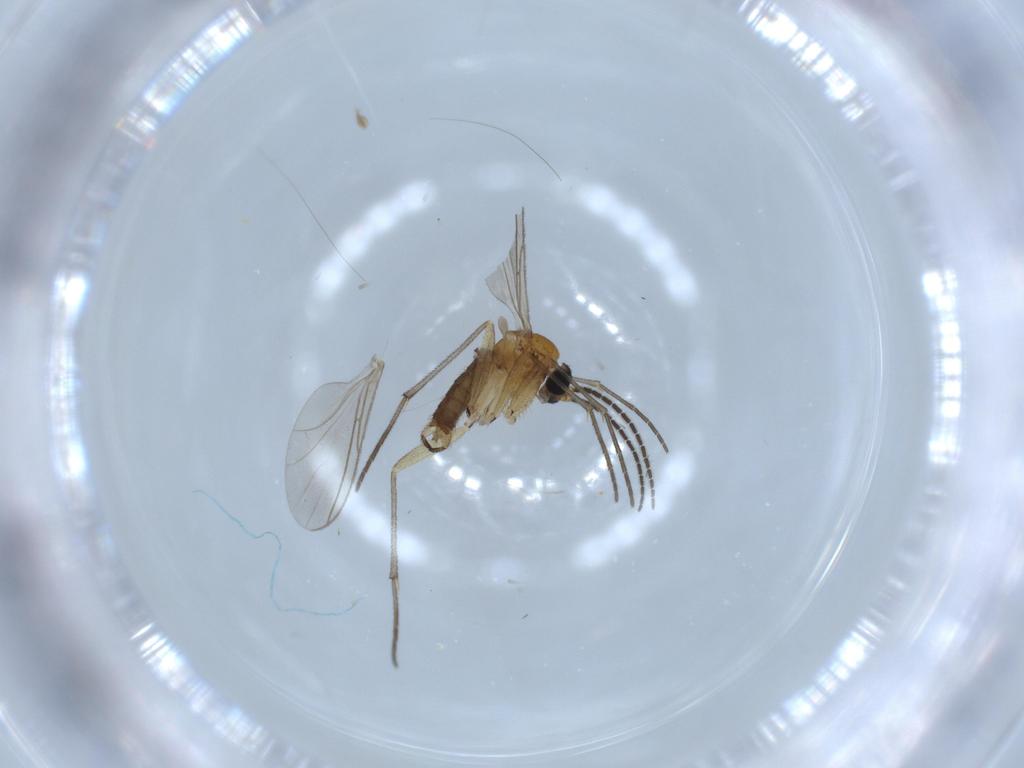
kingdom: Animalia
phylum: Arthropoda
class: Insecta
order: Diptera
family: Sciaridae
